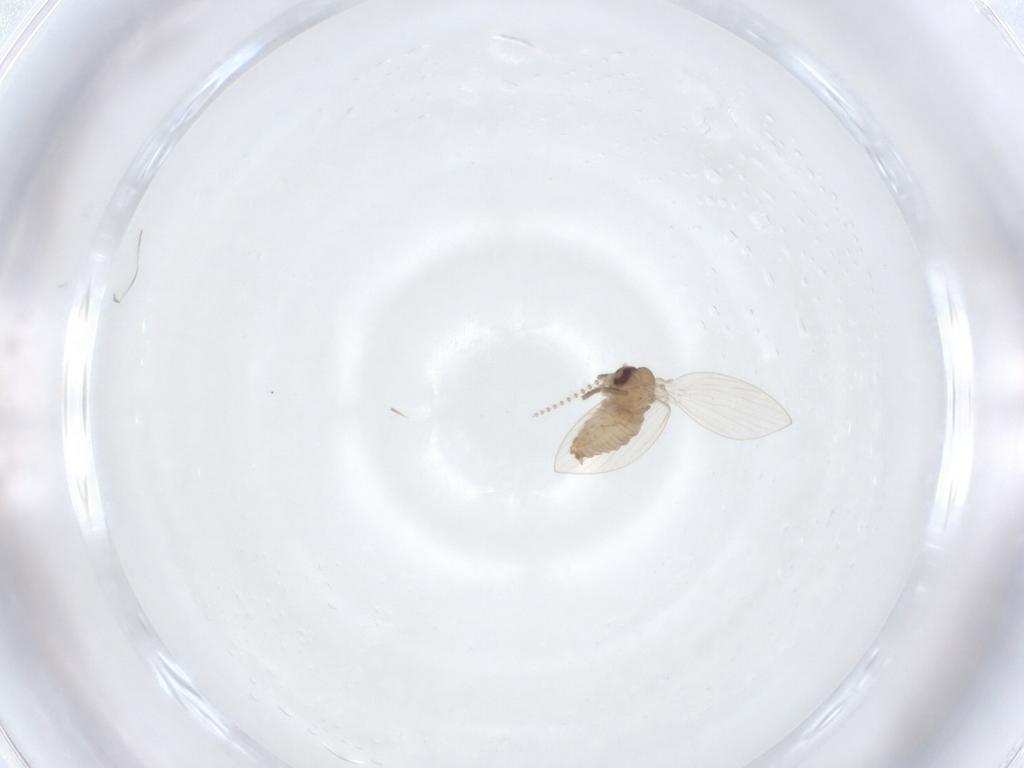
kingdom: Animalia
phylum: Arthropoda
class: Insecta
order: Diptera
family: Psychodidae
